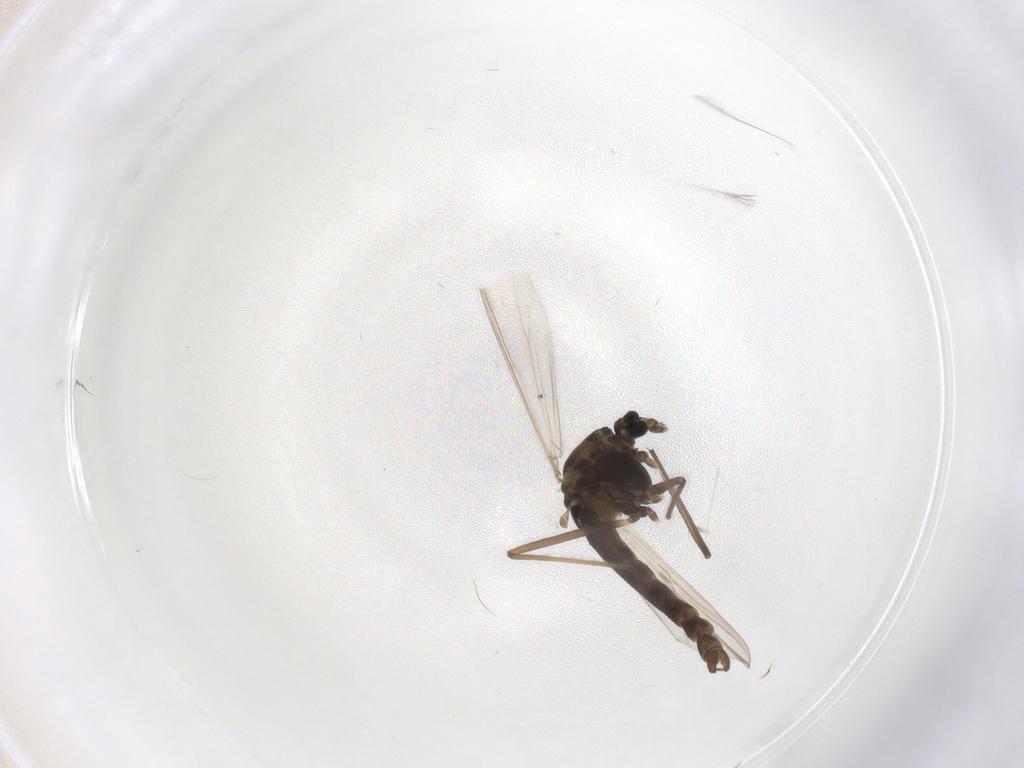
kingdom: Animalia
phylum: Arthropoda
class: Insecta
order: Diptera
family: Chironomidae
